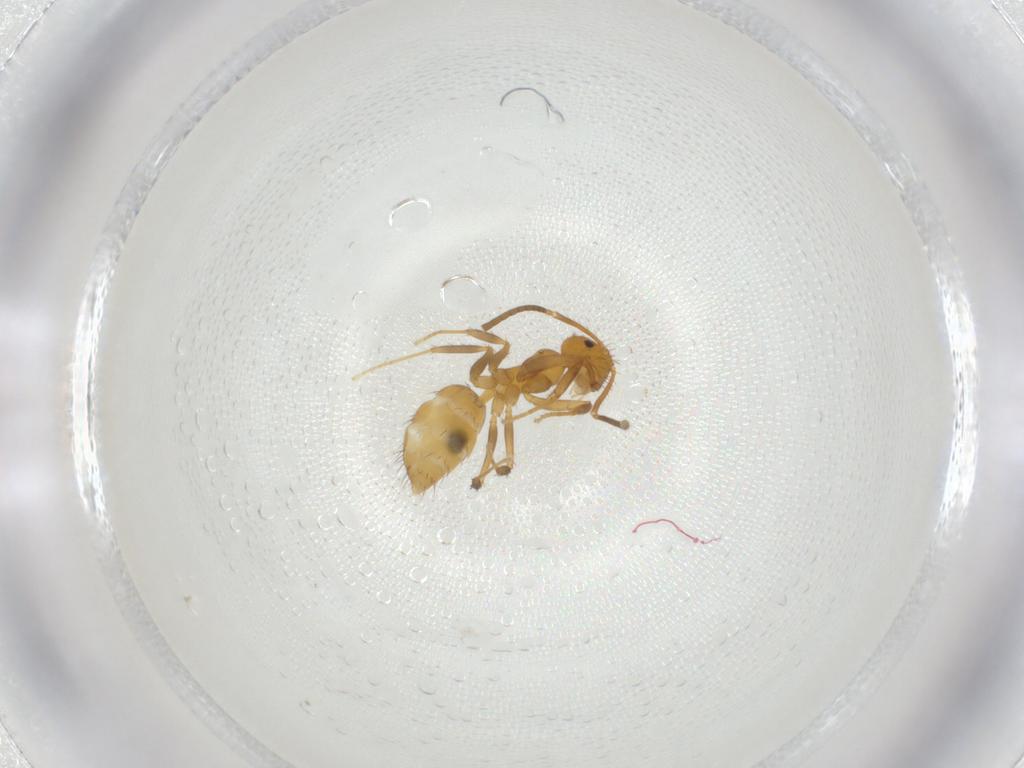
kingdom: Animalia
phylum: Arthropoda
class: Insecta
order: Hymenoptera
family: Formicidae
